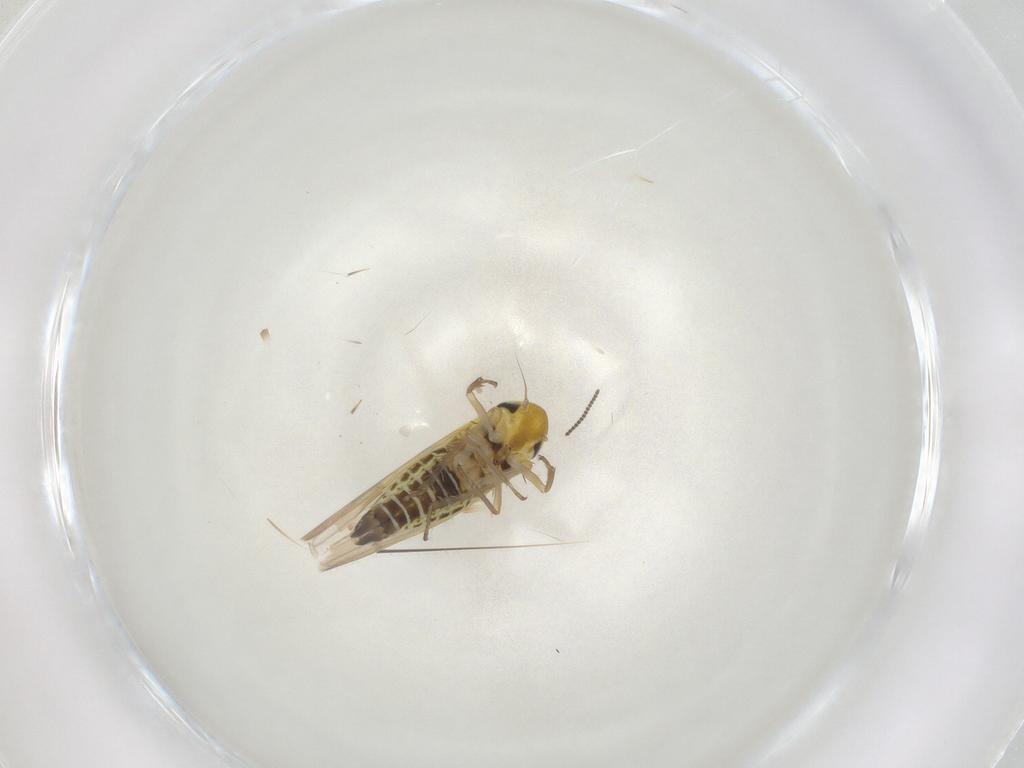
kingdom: Animalia
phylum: Arthropoda
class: Insecta
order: Hemiptera
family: Cicadellidae
